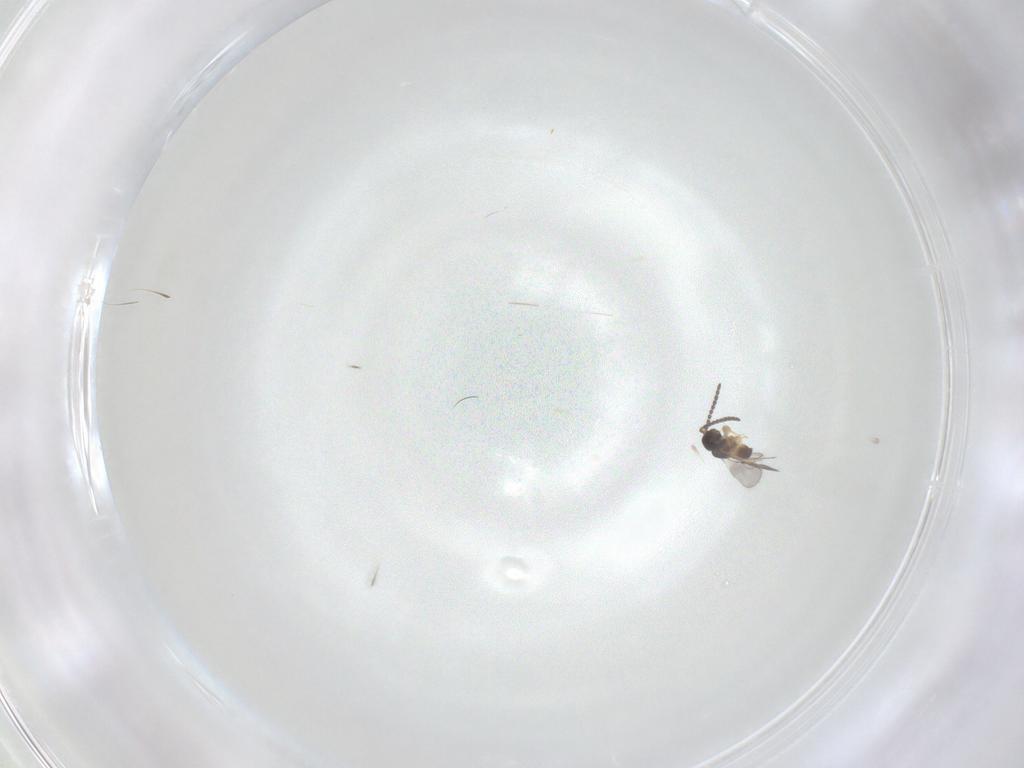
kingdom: Animalia
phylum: Arthropoda
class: Insecta
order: Hymenoptera
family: Ceraphronidae
